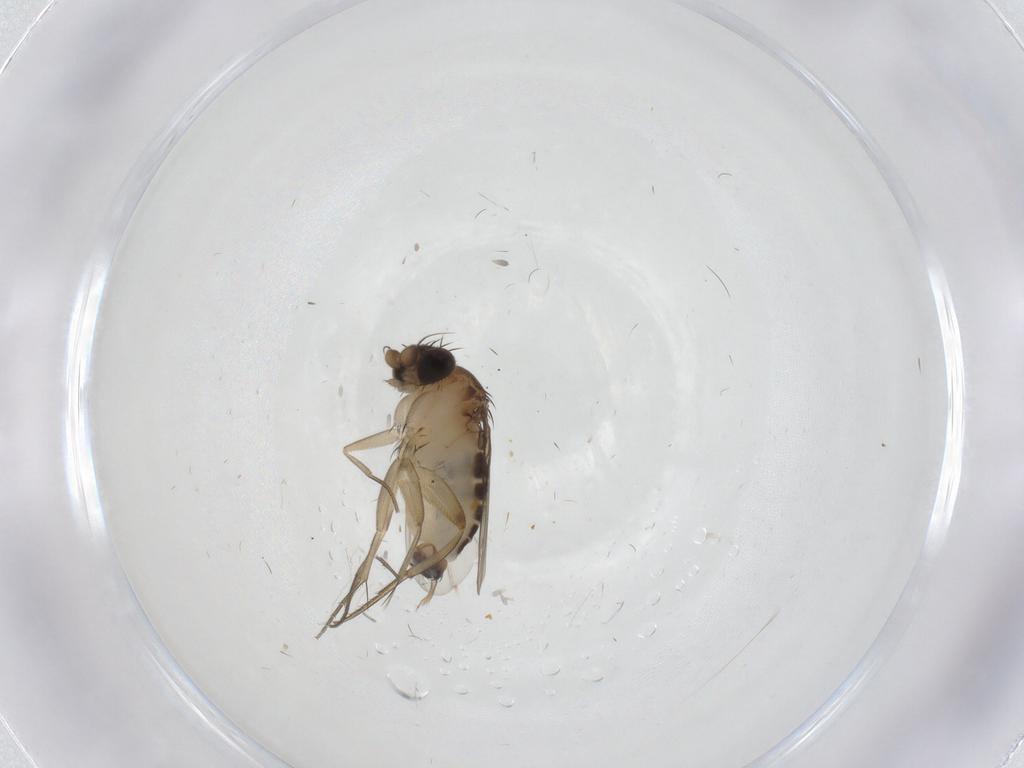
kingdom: Animalia
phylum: Arthropoda
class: Insecta
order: Diptera
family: Phoridae
